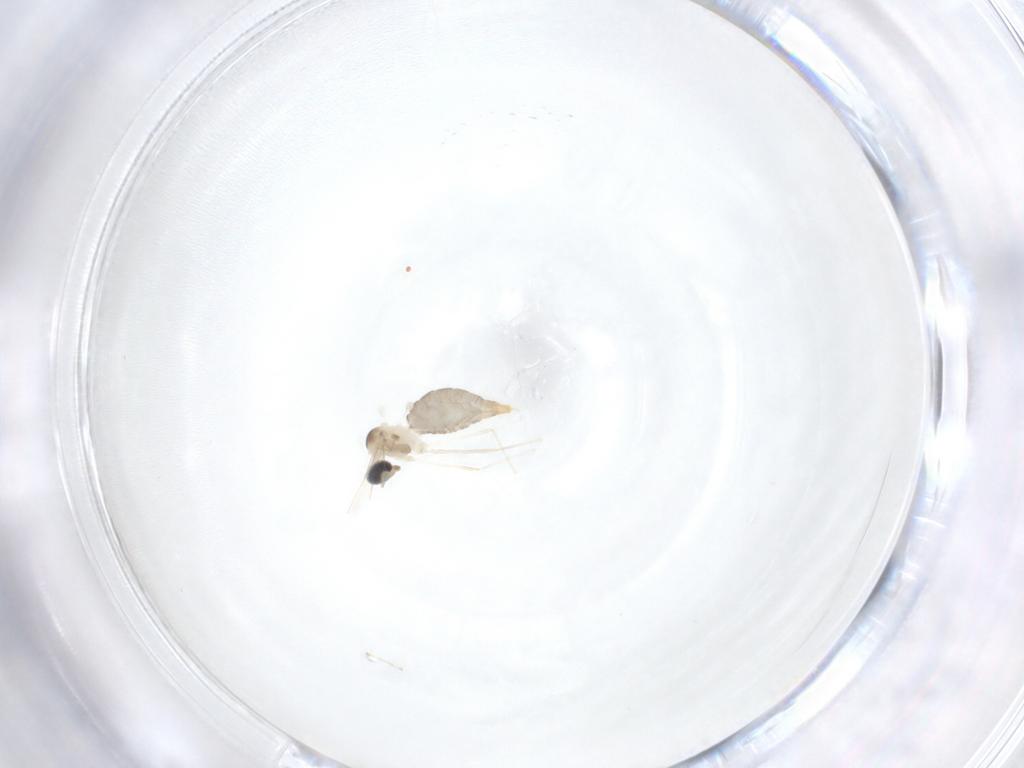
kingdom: Animalia
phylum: Arthropoda
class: Insecta
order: Diptera
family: Cecidomyiidae
